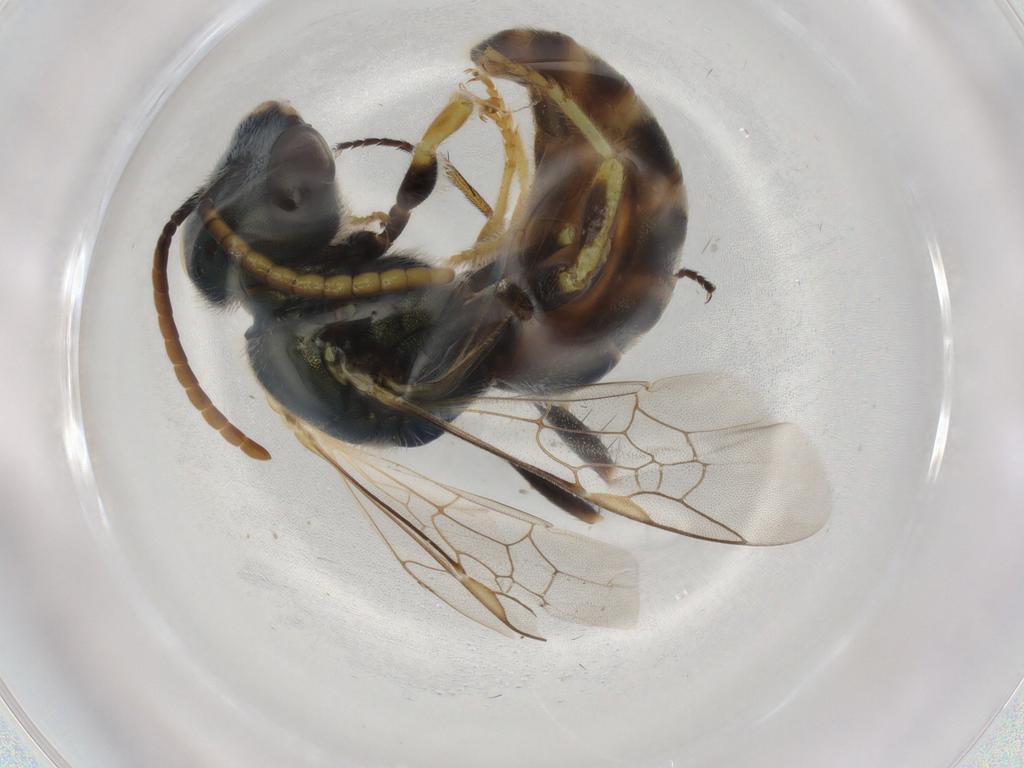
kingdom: Animalia
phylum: Arthropoda
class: Insecta
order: Hymenoptera
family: Halictidae
